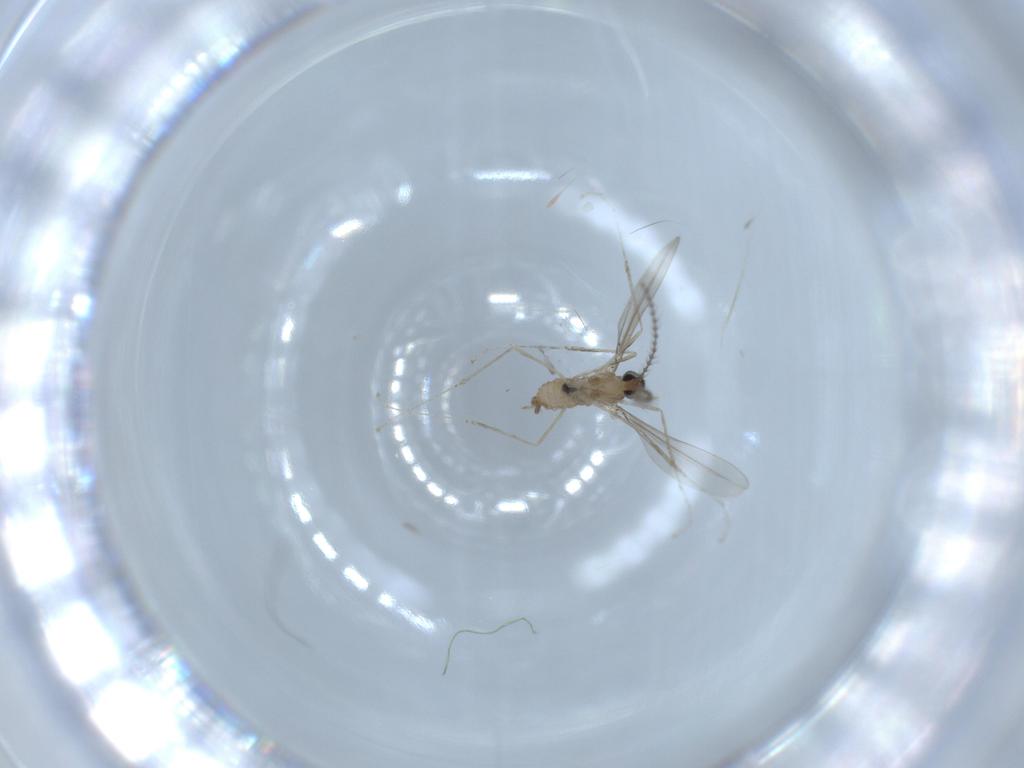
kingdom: Animalia
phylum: Arthropoda
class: Insecta
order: Diptera
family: Cecidomyiidae
